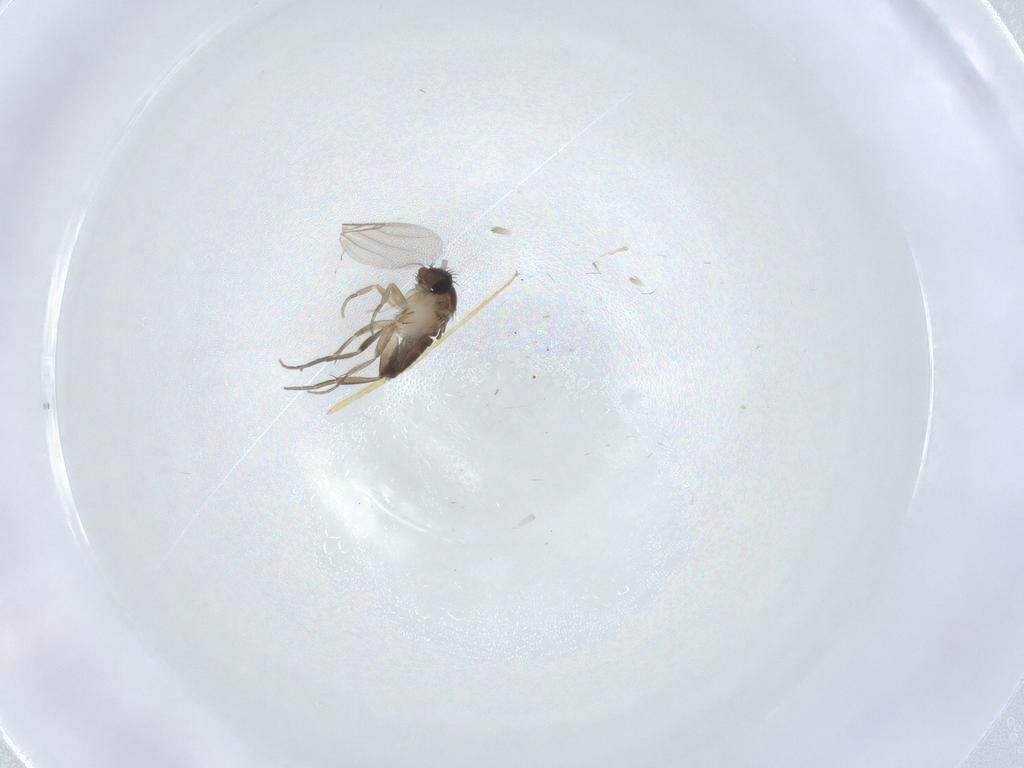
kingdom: Animalia
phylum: Arthropoda
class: Insecta
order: Diptera
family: Phoridae
